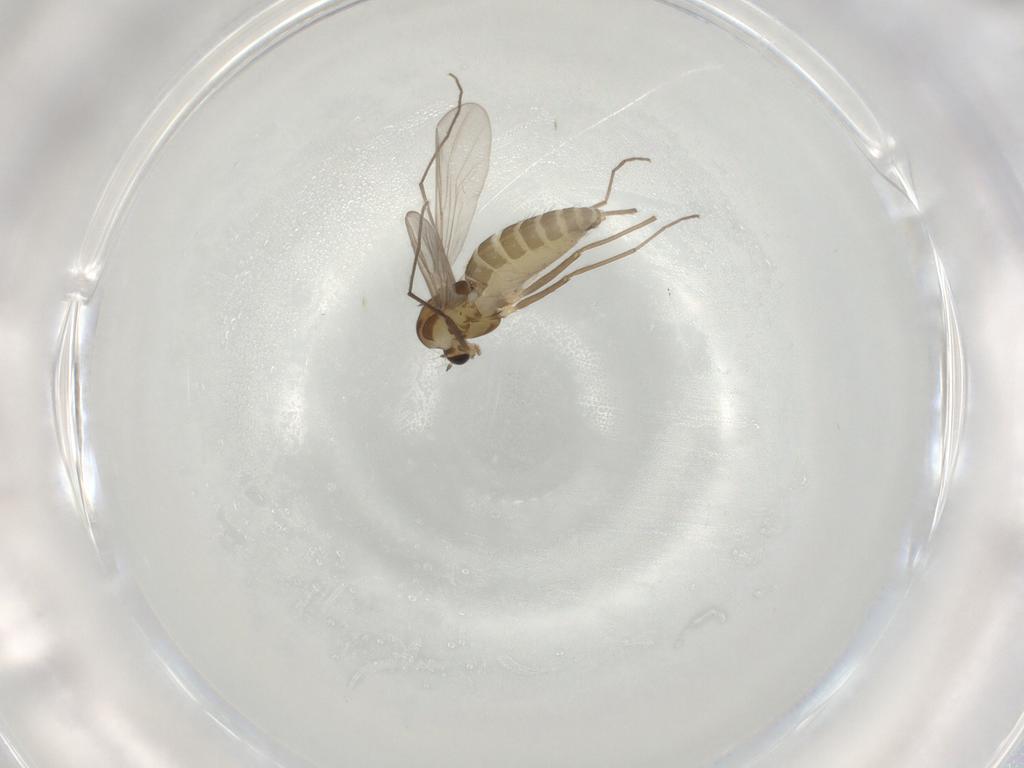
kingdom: Animalia
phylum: Arthropoda
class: Insecta
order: Diptera
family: Chironomidae
